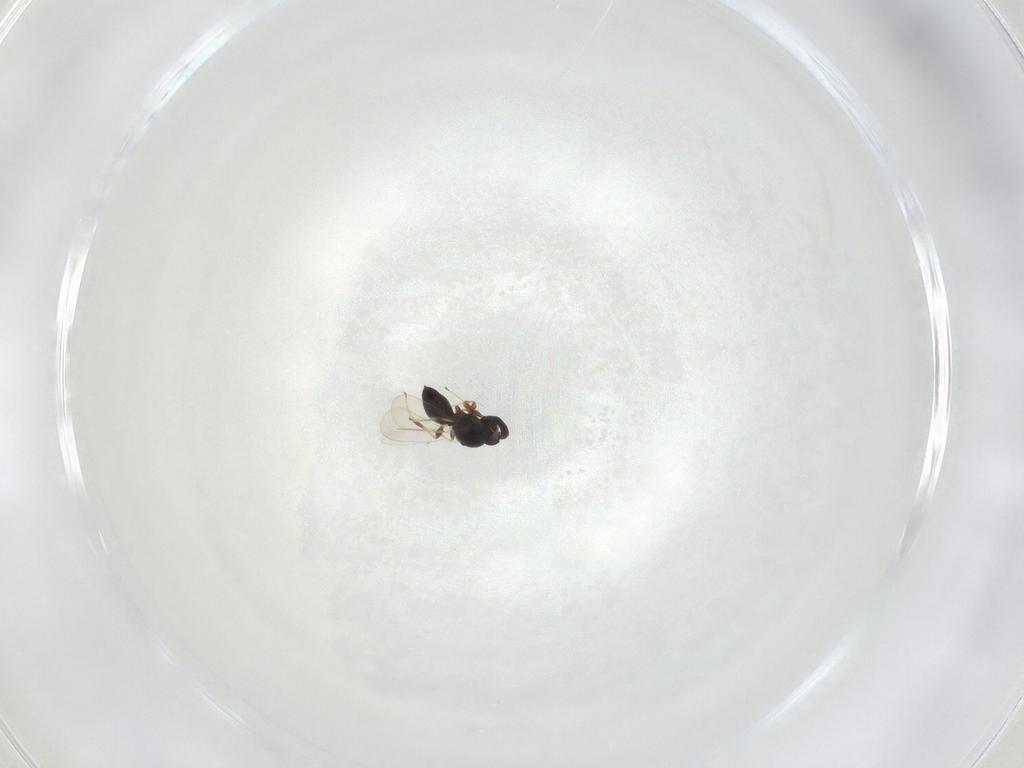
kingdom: Animalia
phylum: Arthropoda
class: Insecta
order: Hymenoptera
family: Platygastridae
